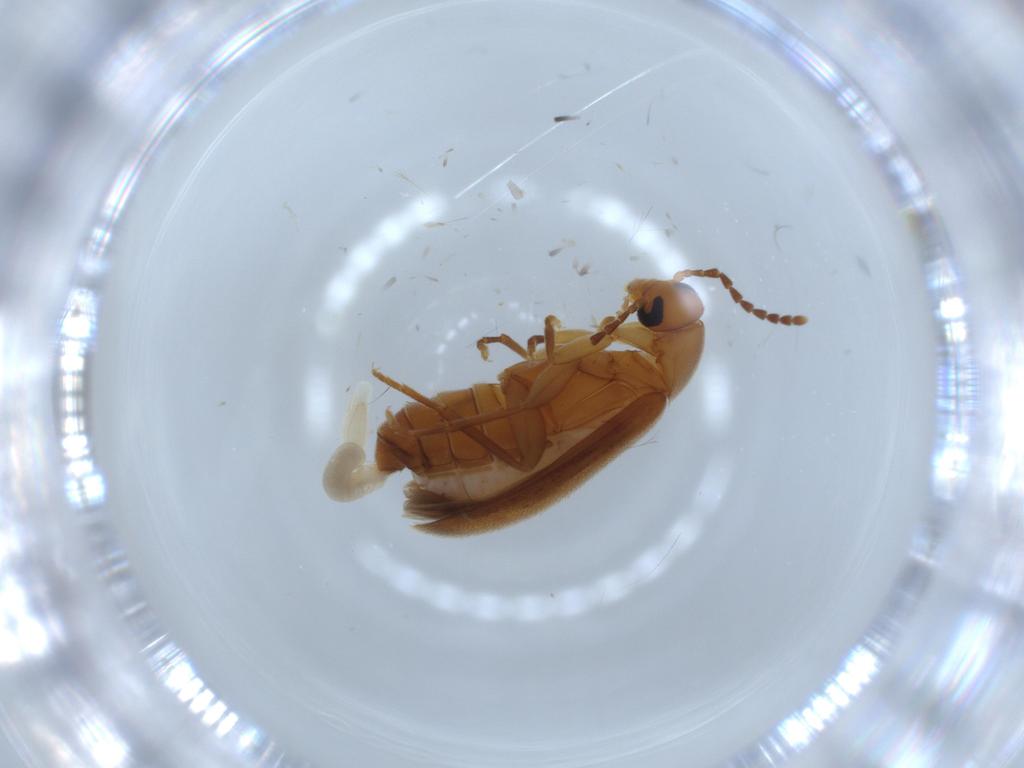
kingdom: Animalia
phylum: Arthropoda
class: Insecta
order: Coleoptera
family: Scraptiidae
